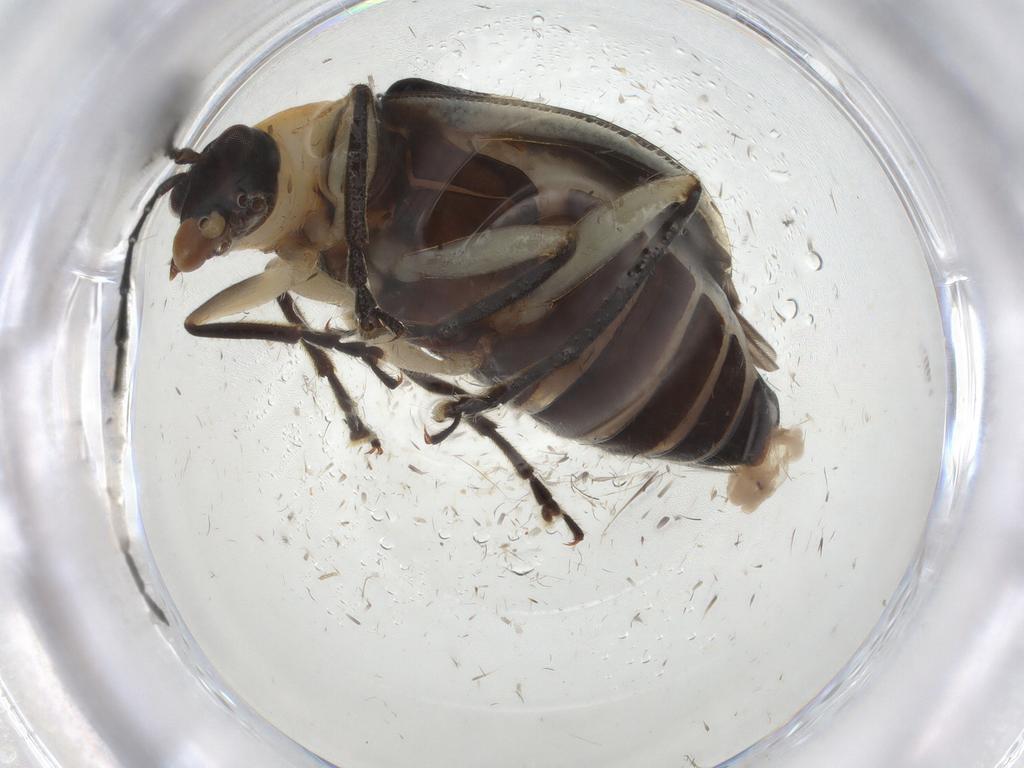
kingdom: Animalia
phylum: Arthropoda
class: Insecta
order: Coleoptera
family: Chrysomelidae
